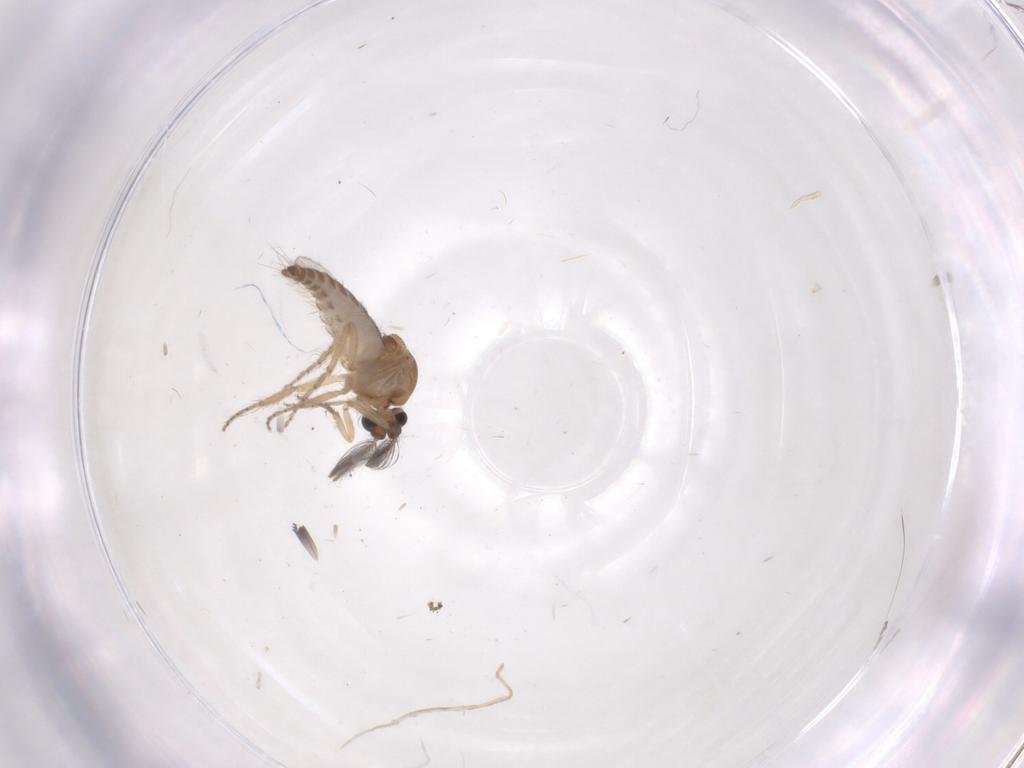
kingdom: Animalia
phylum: Arthropoda
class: Insecta
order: Diptera
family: Ceratopogonidae
